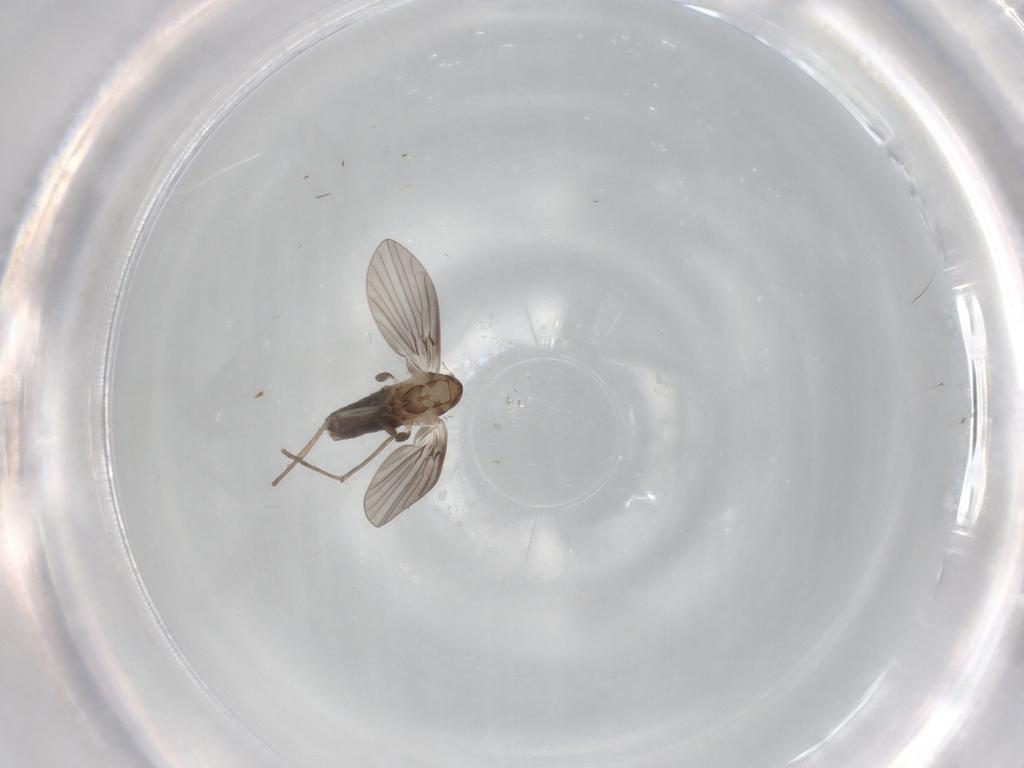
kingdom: Animalia
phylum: Arthropoda
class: Insecta
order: Diptera
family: Psychodidae
